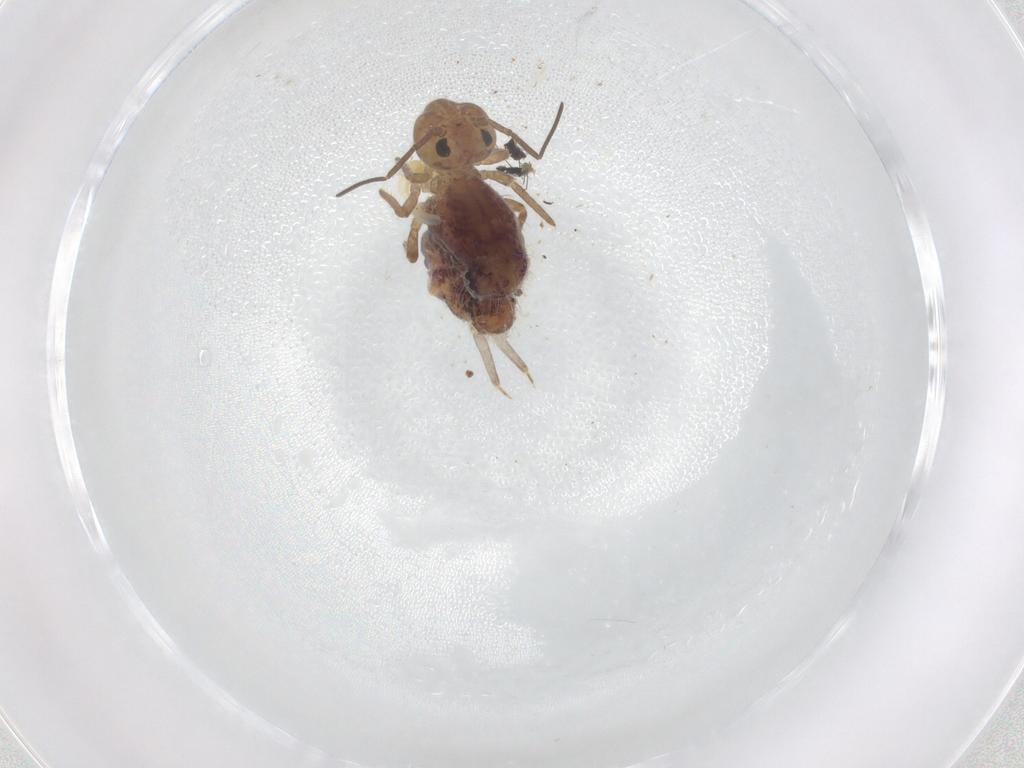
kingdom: Animalia
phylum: Arthropoda
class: Collembola
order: Symphypleona
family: Sminthuridae
